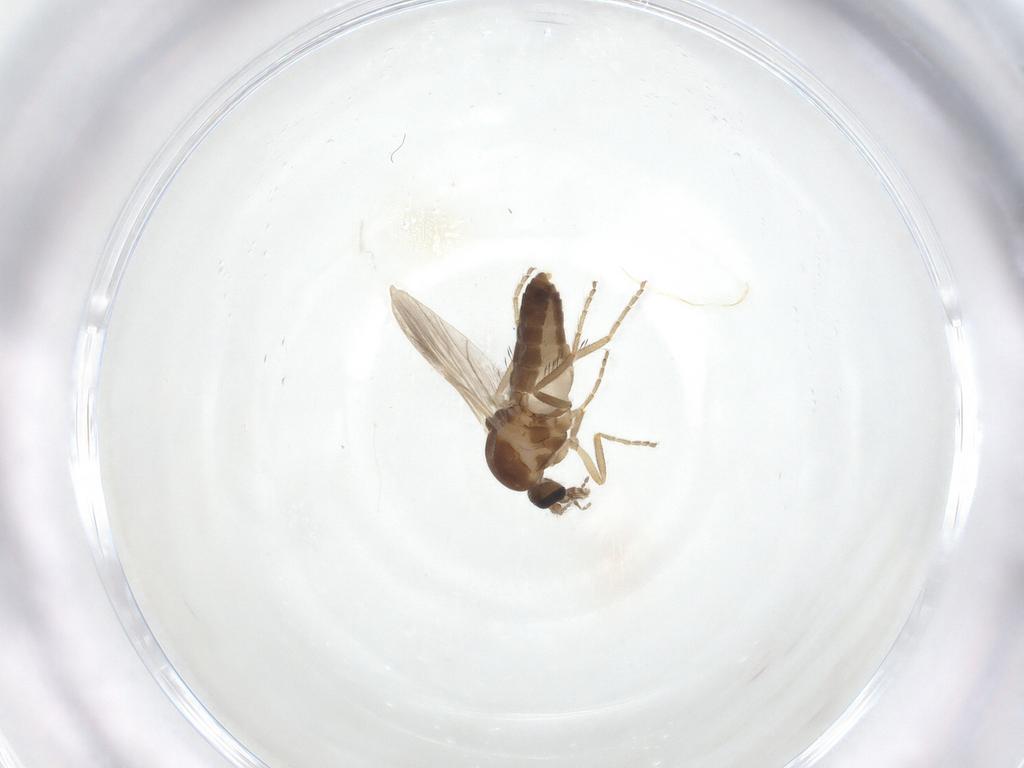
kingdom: Animalia
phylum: Arthropoda
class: Insecta
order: Diptera
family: Ceratopogonidae
